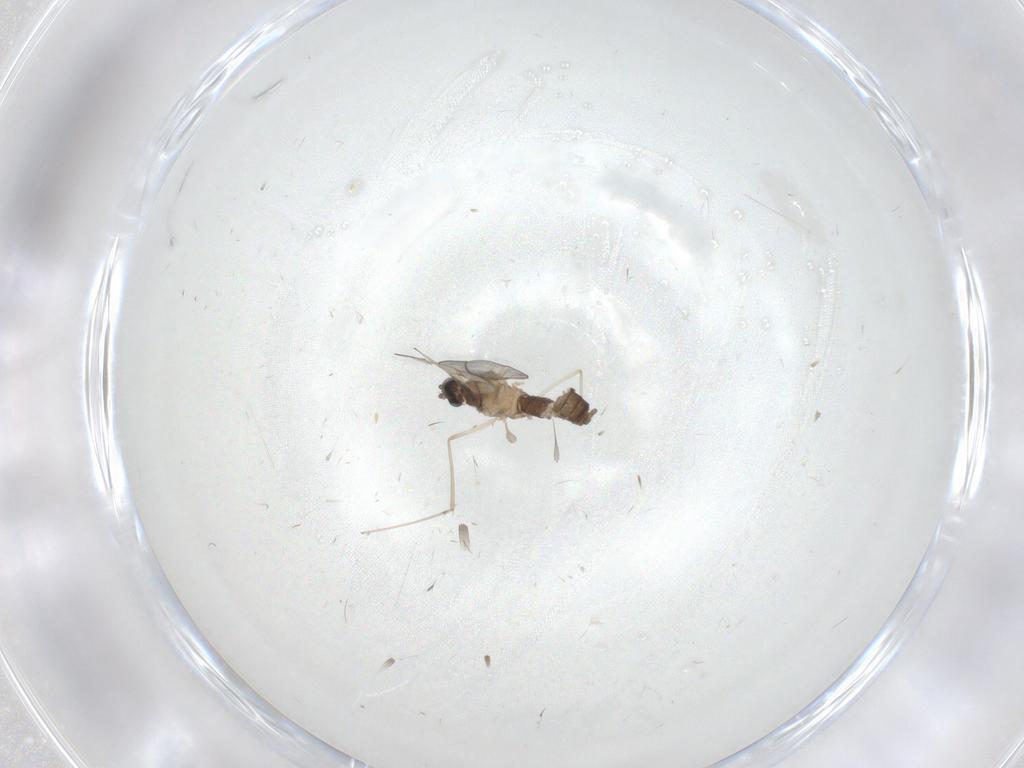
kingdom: Animalia
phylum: Arthropoda
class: Insecta
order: Diptera
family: Cecidomyiidae
